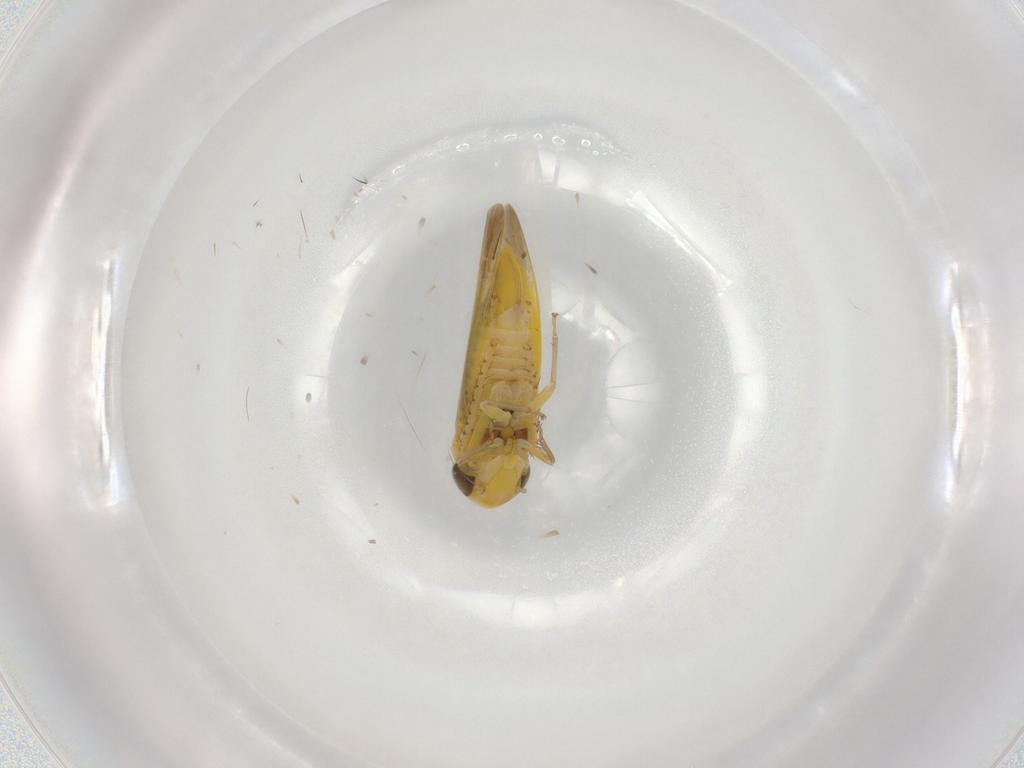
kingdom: Animalia
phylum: Arthropoda
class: Insecta
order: Hemiptera
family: Cicadellidae
